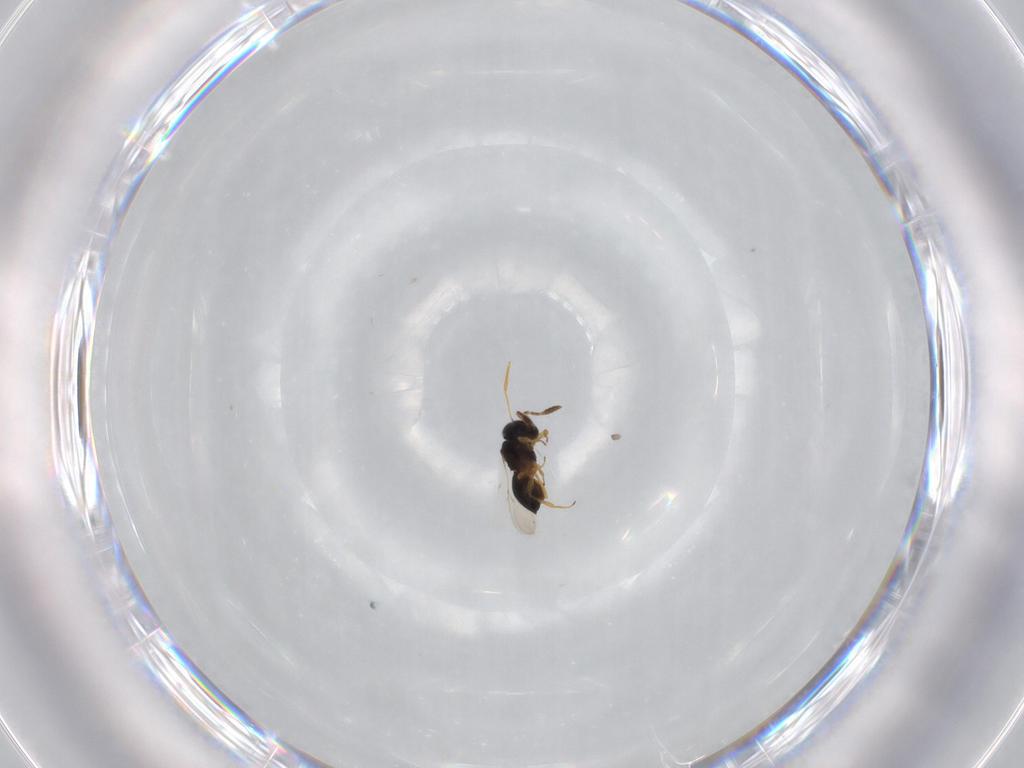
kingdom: Animalia
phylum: Arthropoda
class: Insecta
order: Hymenoptera
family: Scelionidae
